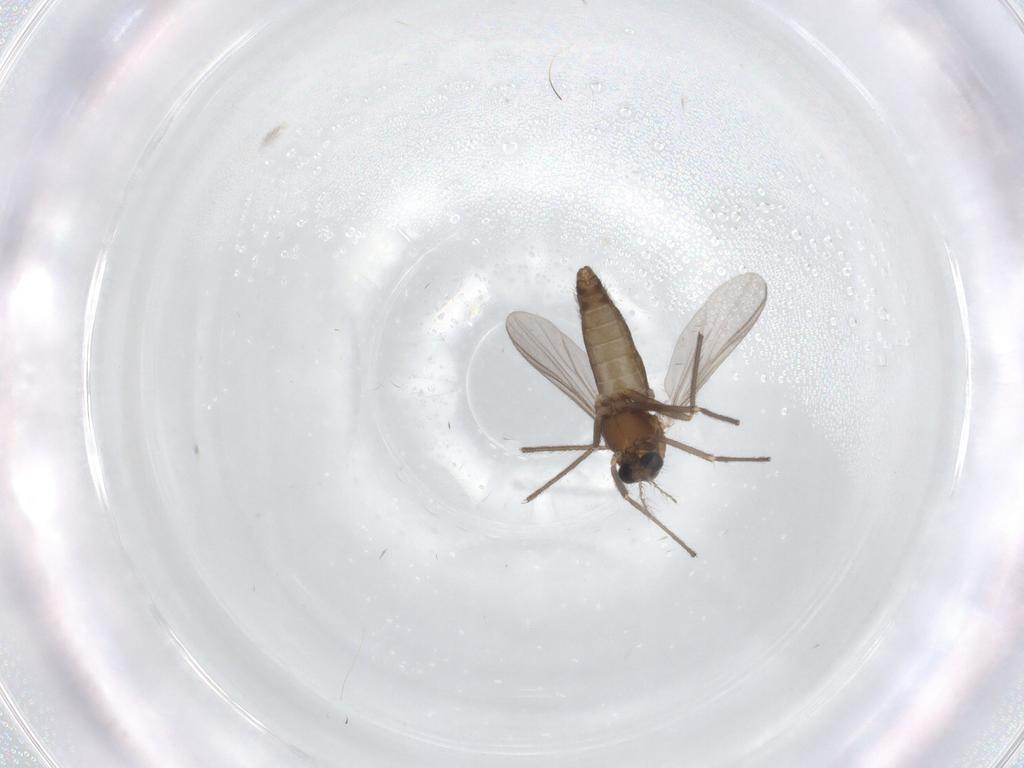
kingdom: Animalia
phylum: Arthropoda
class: Insecta
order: Diptera
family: Chironomidae
